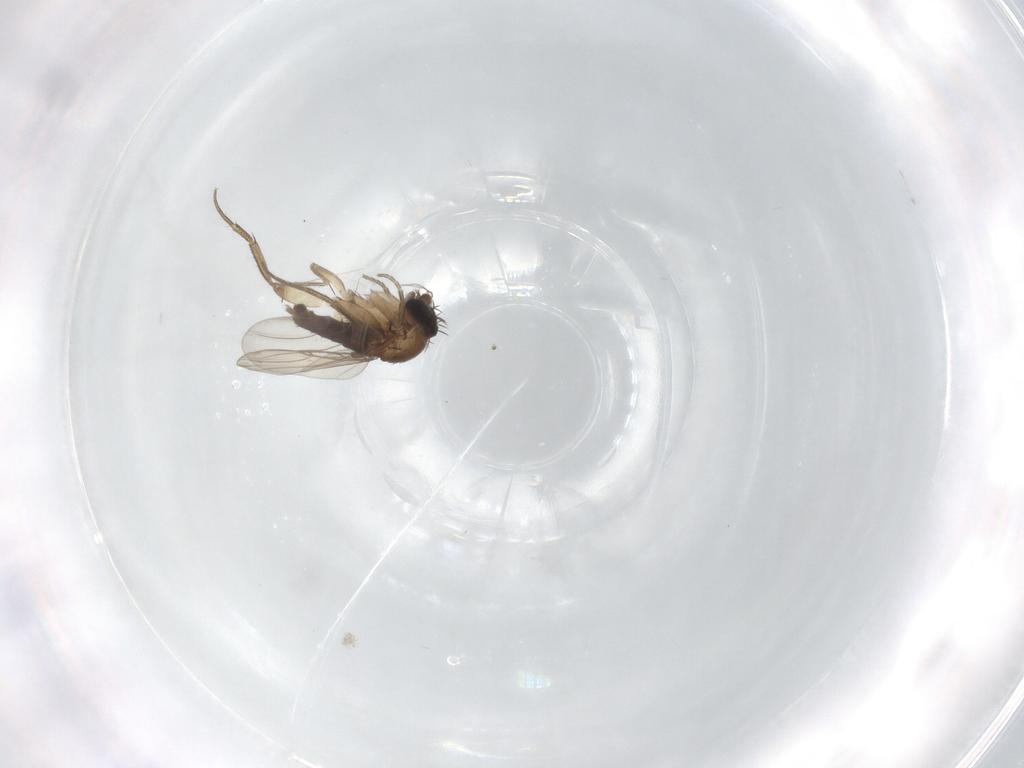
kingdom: Animalia
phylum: Arthropoda
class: Insecta
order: Diptera
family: Phoridae
